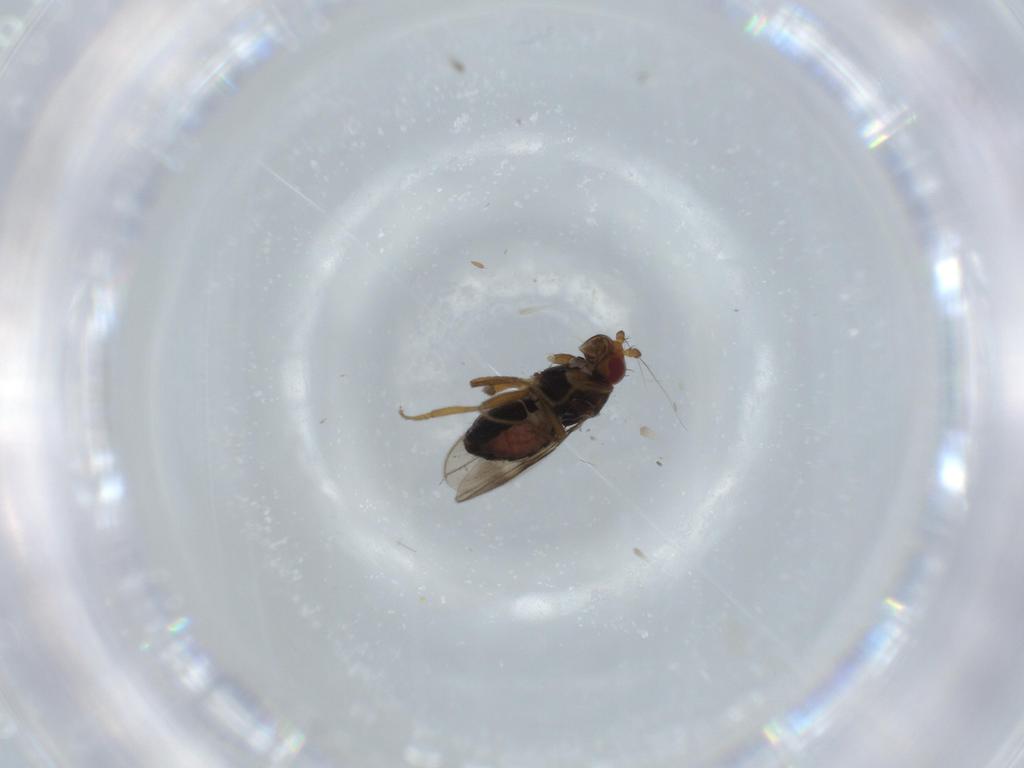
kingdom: Animalia
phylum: Arthropoda
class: Insecta
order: Diptera
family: Sphaeroceridae
